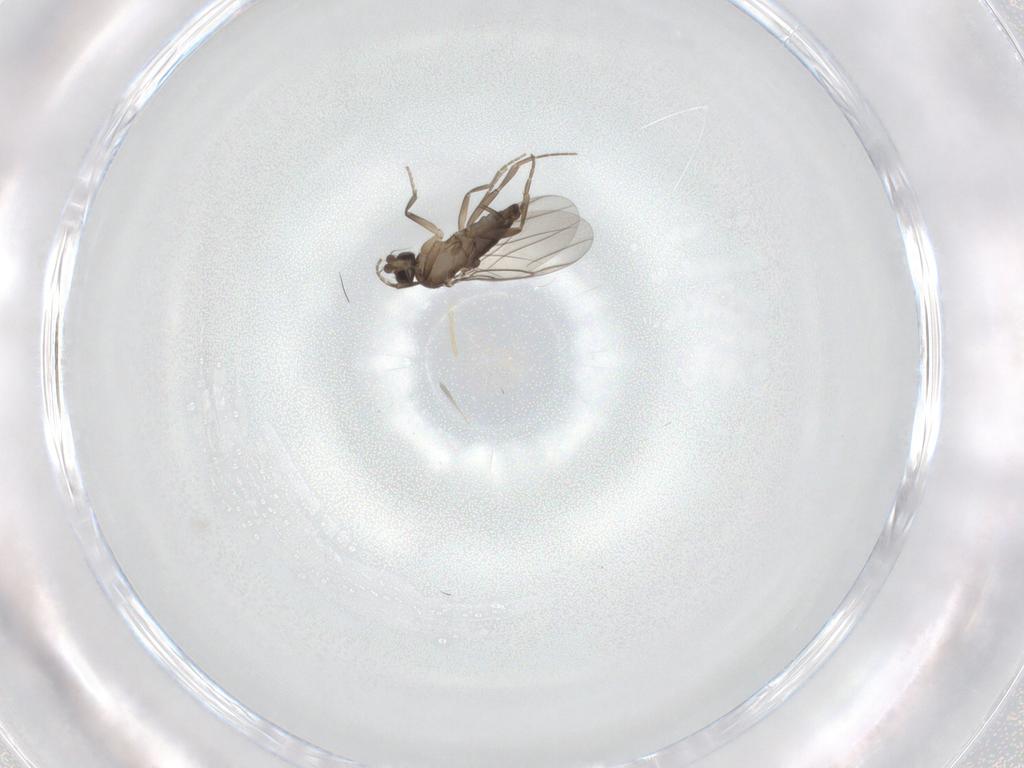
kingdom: Animalia
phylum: Arthropoda
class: Insecta
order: Diptera
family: Phoridae
